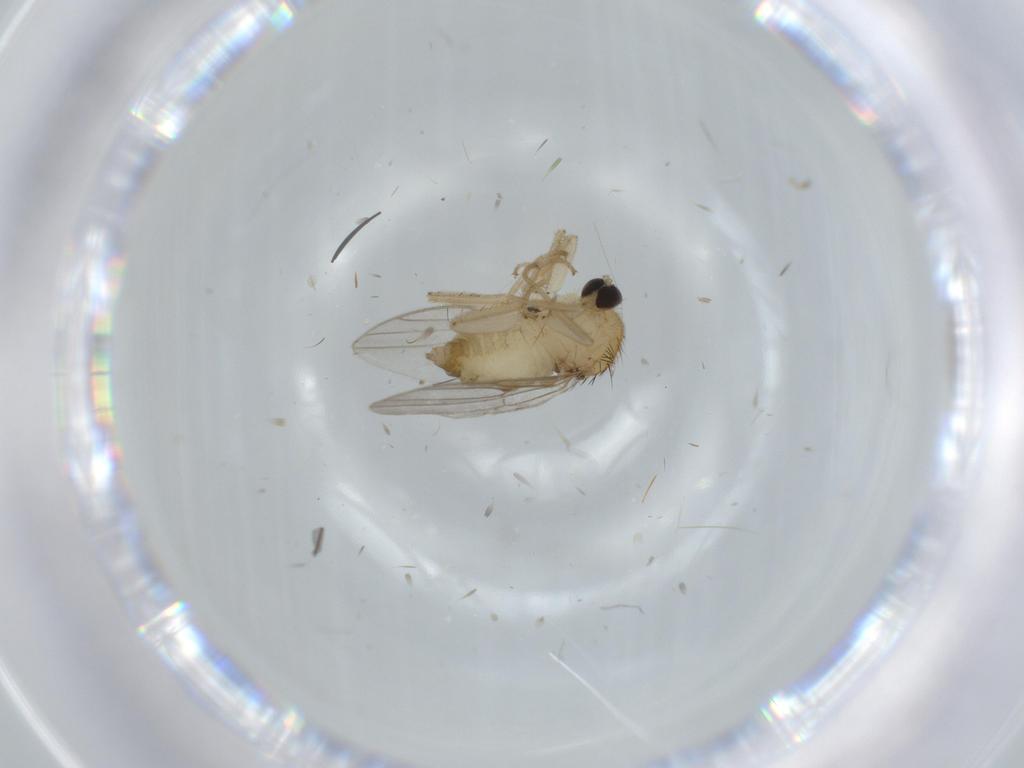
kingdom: Animalia
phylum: Arthropoda
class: Insecta
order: Diptera
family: Hybotidae
